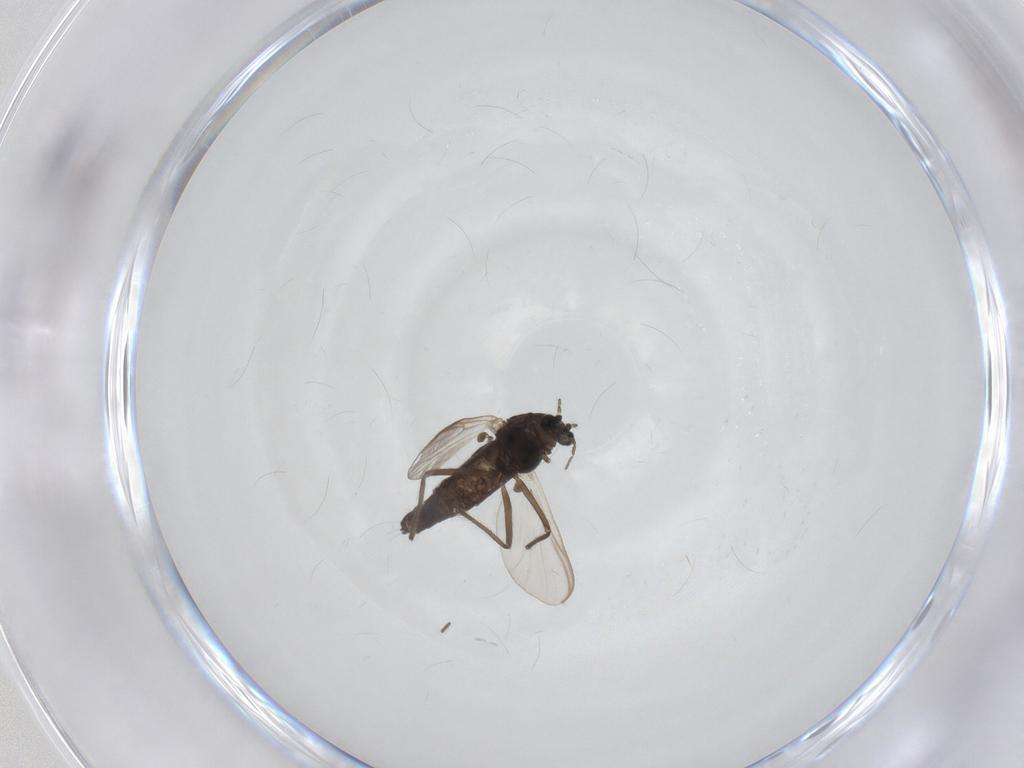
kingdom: Animalia
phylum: Arthropoda
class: Insecta
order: Diptera
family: Chironomidae
